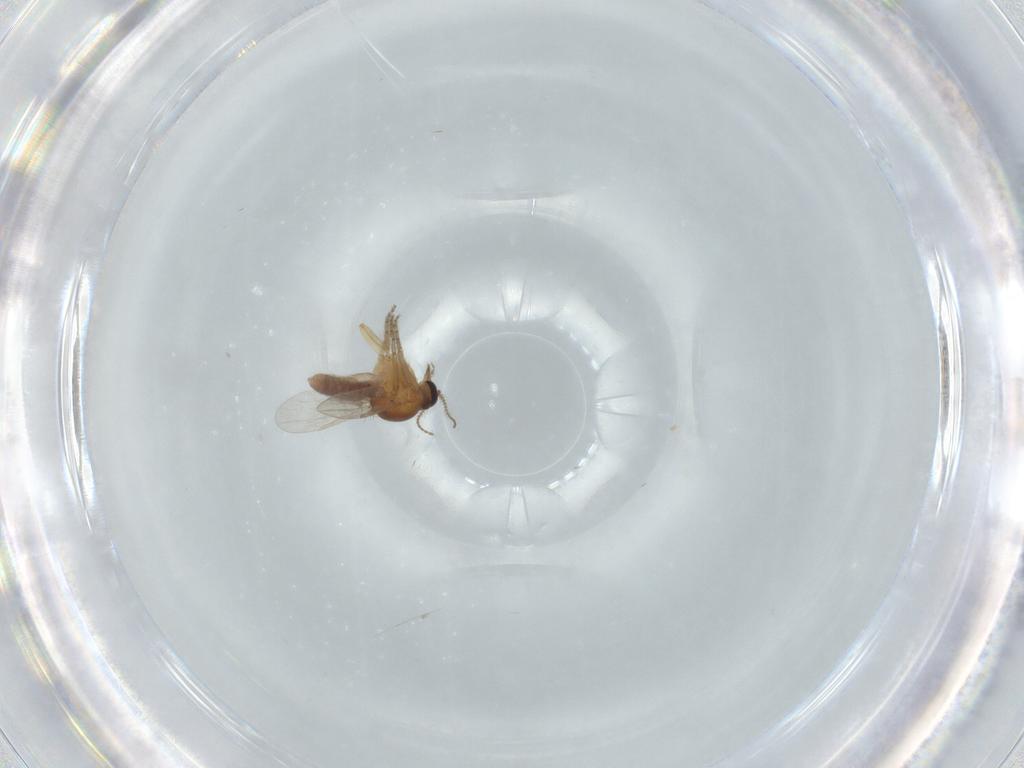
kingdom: Animalia
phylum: Arthropoda
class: Insecta
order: Diptera
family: Ceratopogonidae
